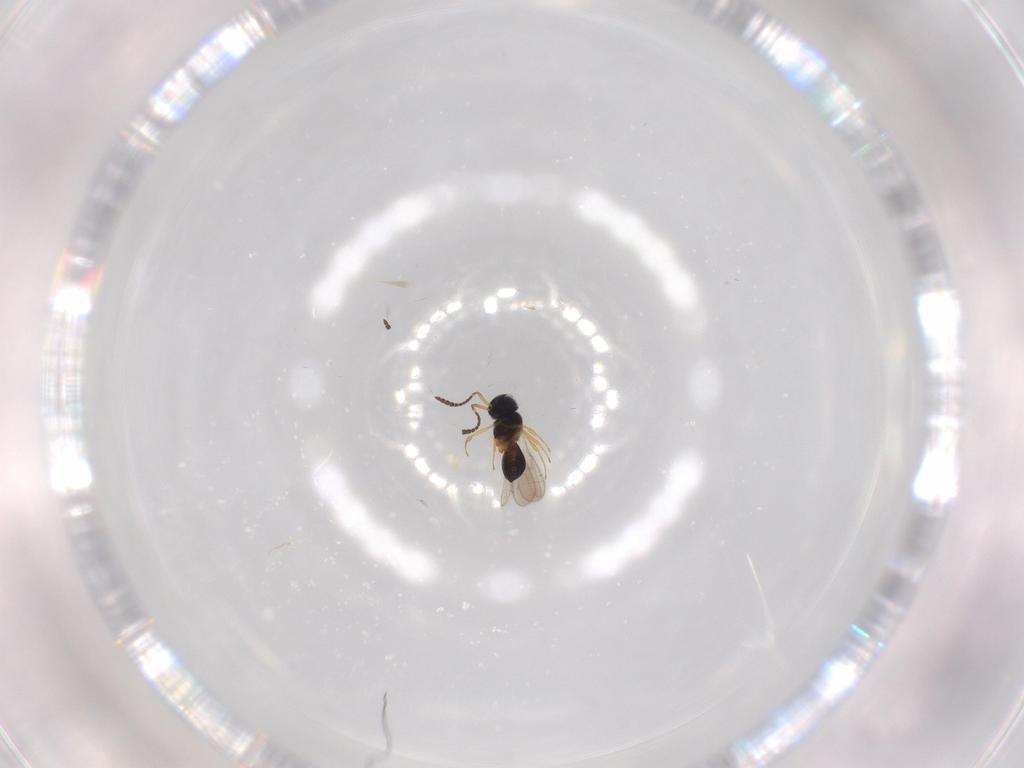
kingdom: Animalia
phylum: Arthropoda
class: Insecta
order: Hymenoptera
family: Scelionidae
